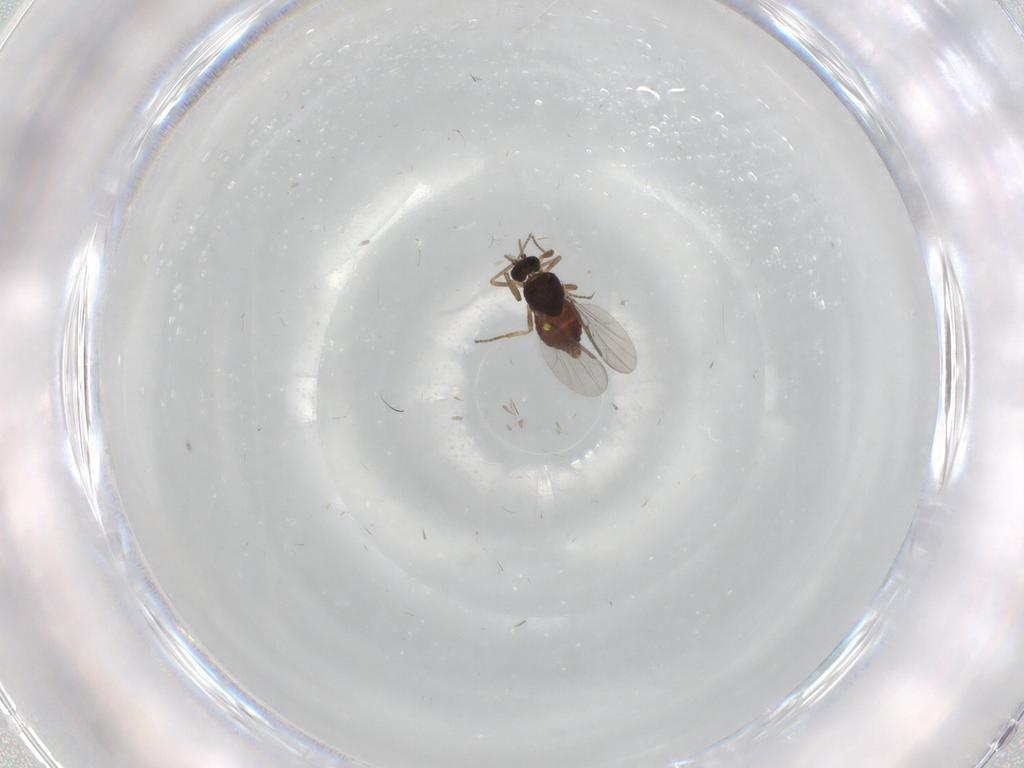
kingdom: Animalia
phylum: Arthropoda
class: Insecta
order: Diptera
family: Ceratopogonidae
